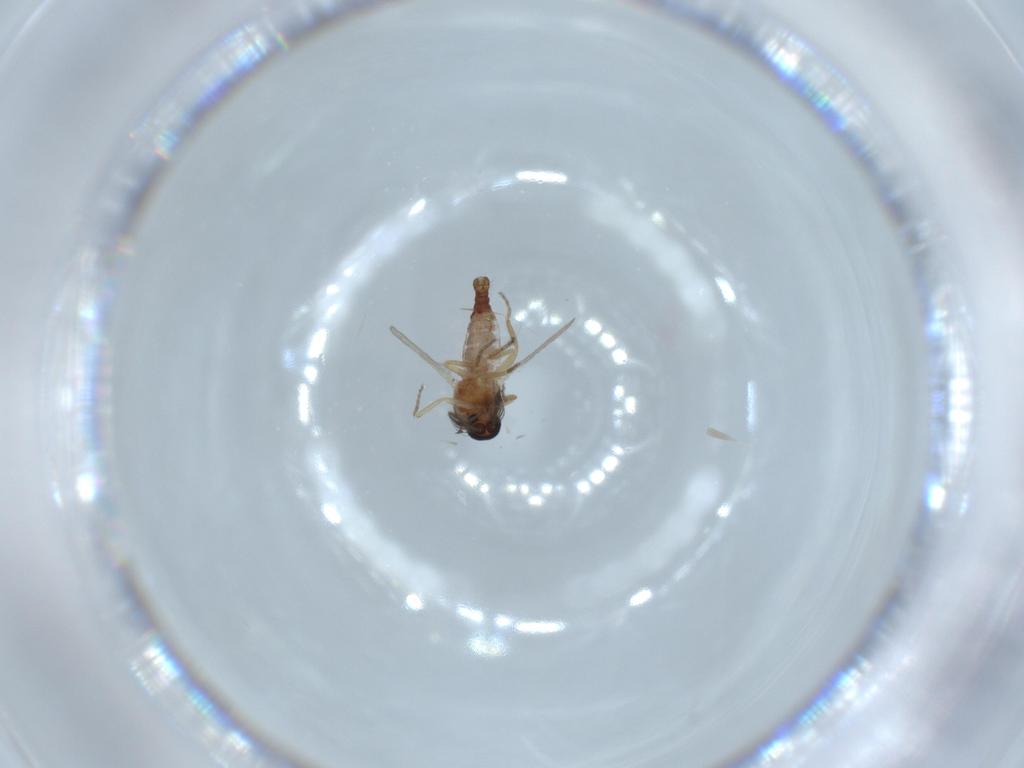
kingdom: Animalia
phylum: Arthropoda
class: Insecta
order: Diptera
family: Ceratopogonidae
